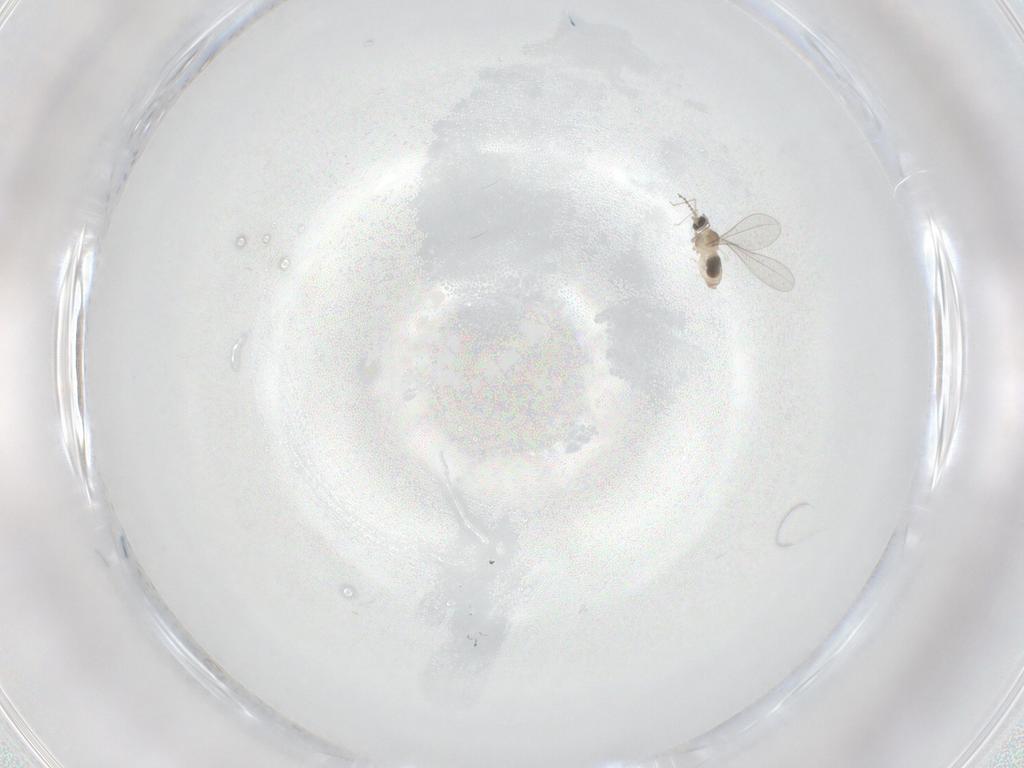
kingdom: Animalia
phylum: Arthropoda
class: Insecta
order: Diptera
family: Cecidomyiidae
